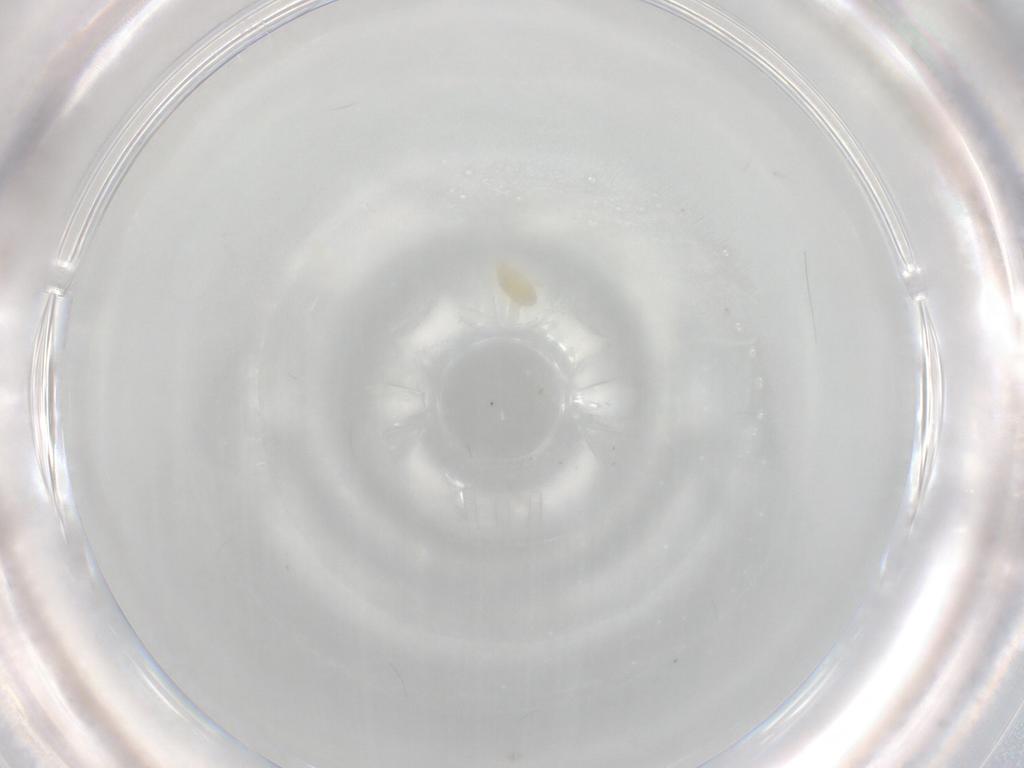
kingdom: Animalia
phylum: Arthropoda
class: Arachnida
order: Trombidiformes
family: Eupodidae
